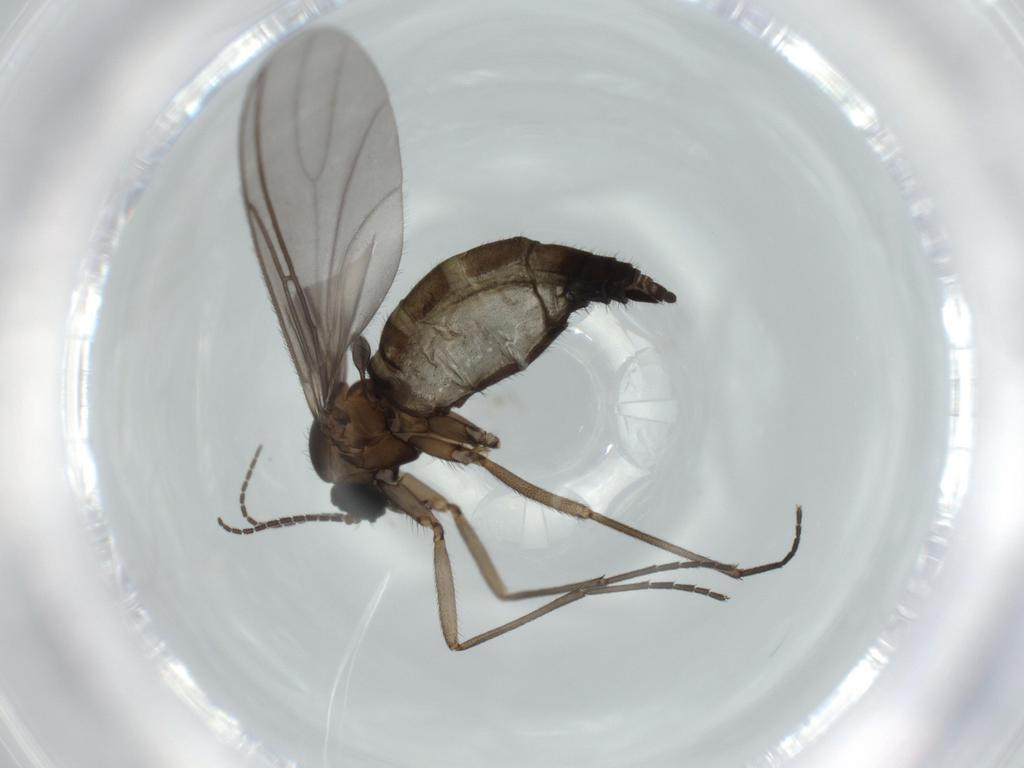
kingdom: Animalia
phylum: Arthropoda
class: Insecta
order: Diptera
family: Sciaridae
